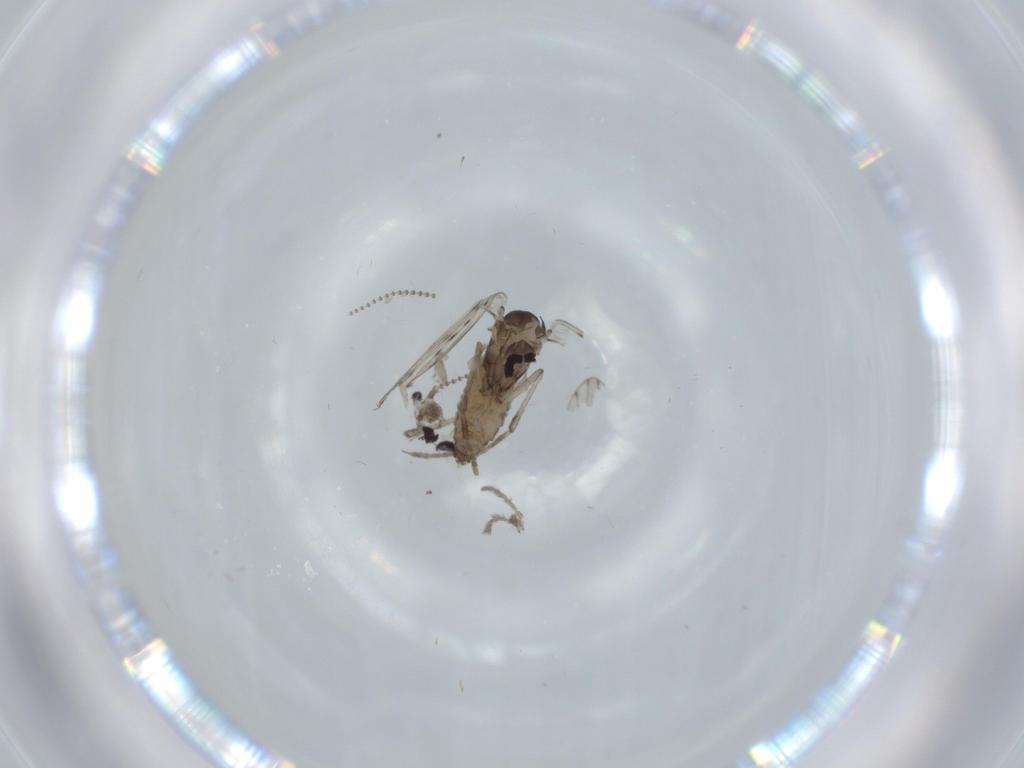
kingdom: Animalia
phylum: Arthropoda
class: Insecta
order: Diptera
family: Psychodidae
